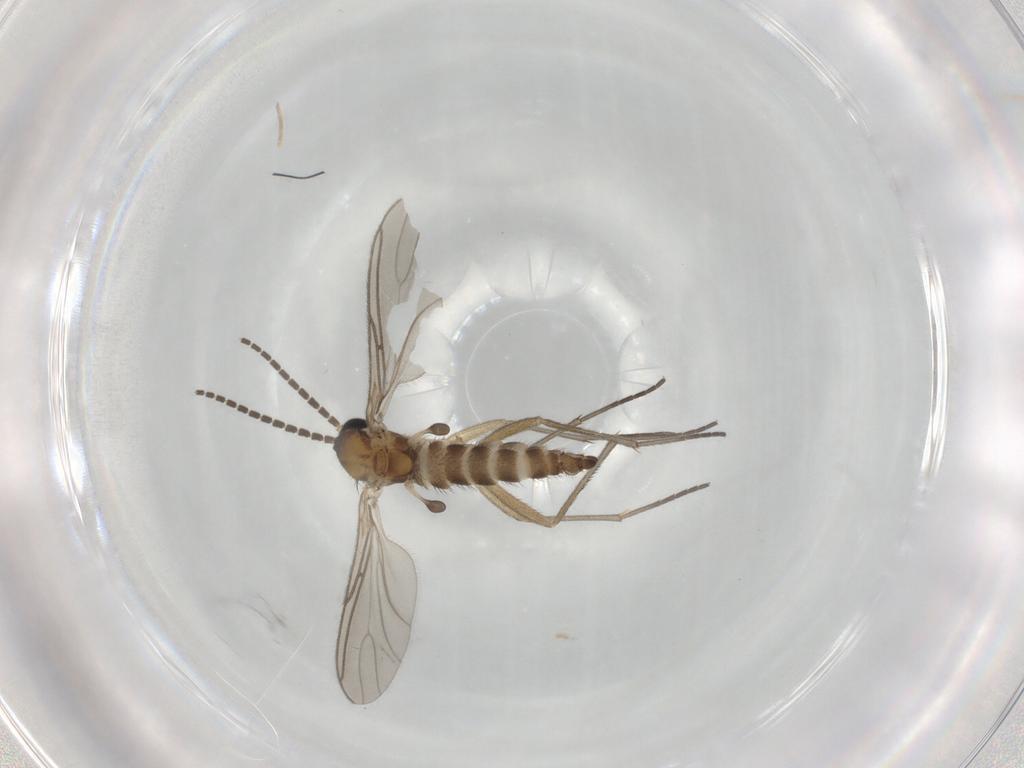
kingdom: Animalia
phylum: Arthropoda
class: Insecta
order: Diptera
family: Sciaridae
